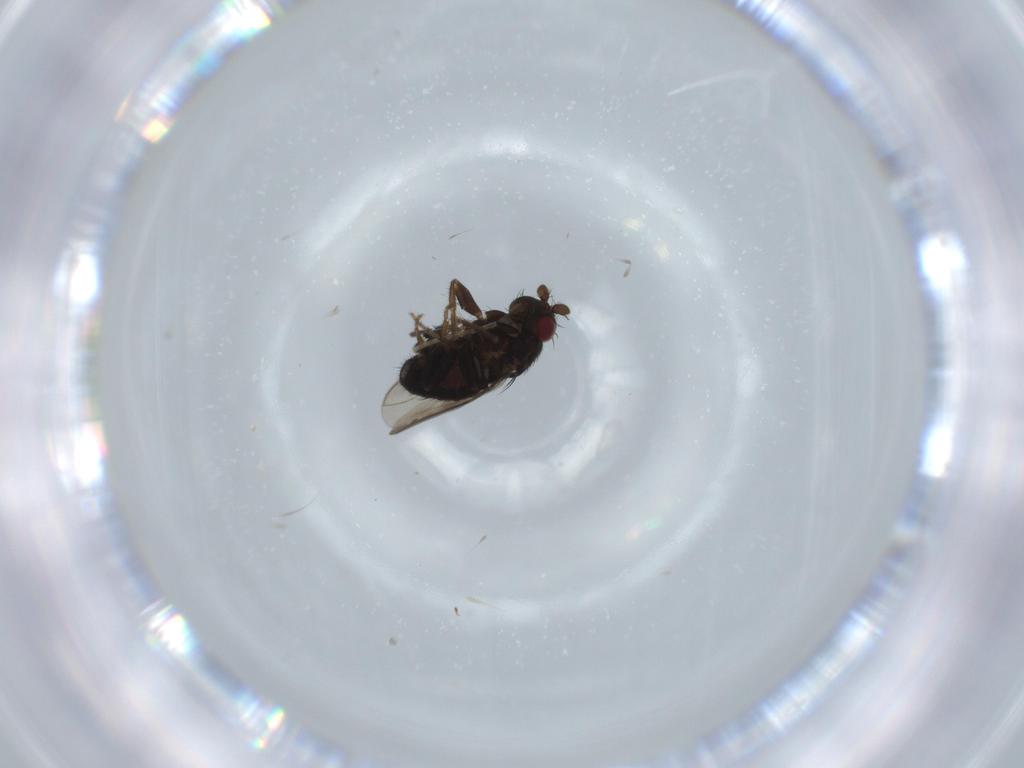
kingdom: Animalia
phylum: Arthropoda
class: Insecta
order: Diptera
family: Sphaeroceridae
